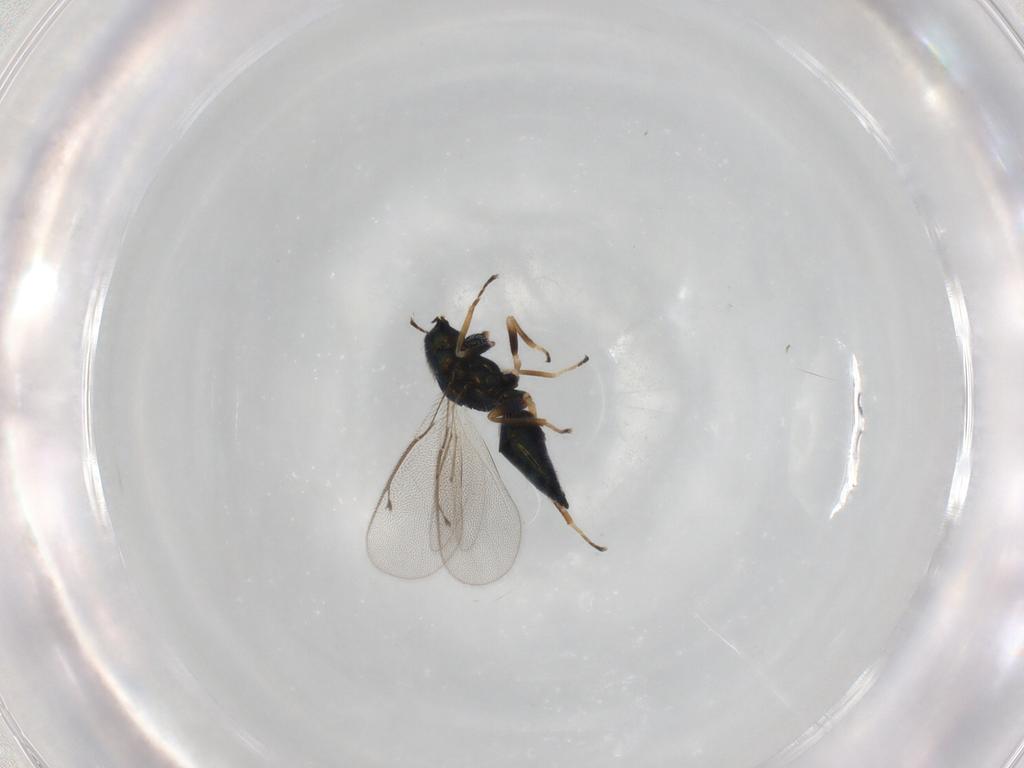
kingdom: Animalia
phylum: Arthropoda
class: Insecta
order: Hymenoptera
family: Eulophidae
